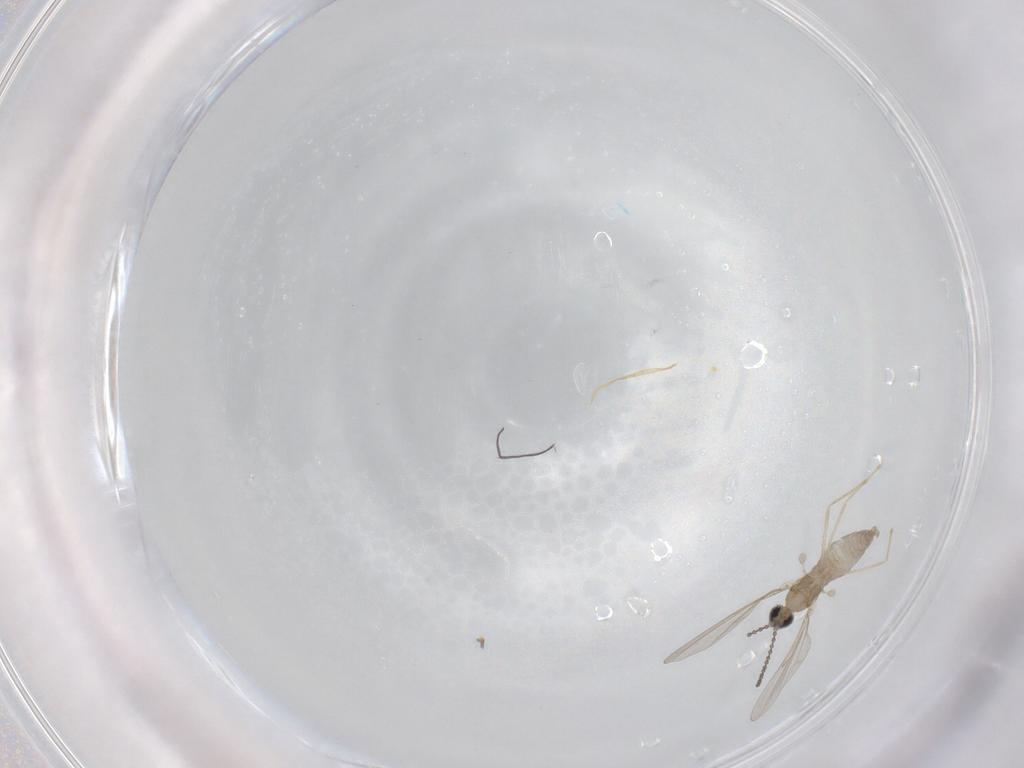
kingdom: Animalia
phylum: Arthropoda
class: Insecta
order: Diptera
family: Cecidomyiidae
